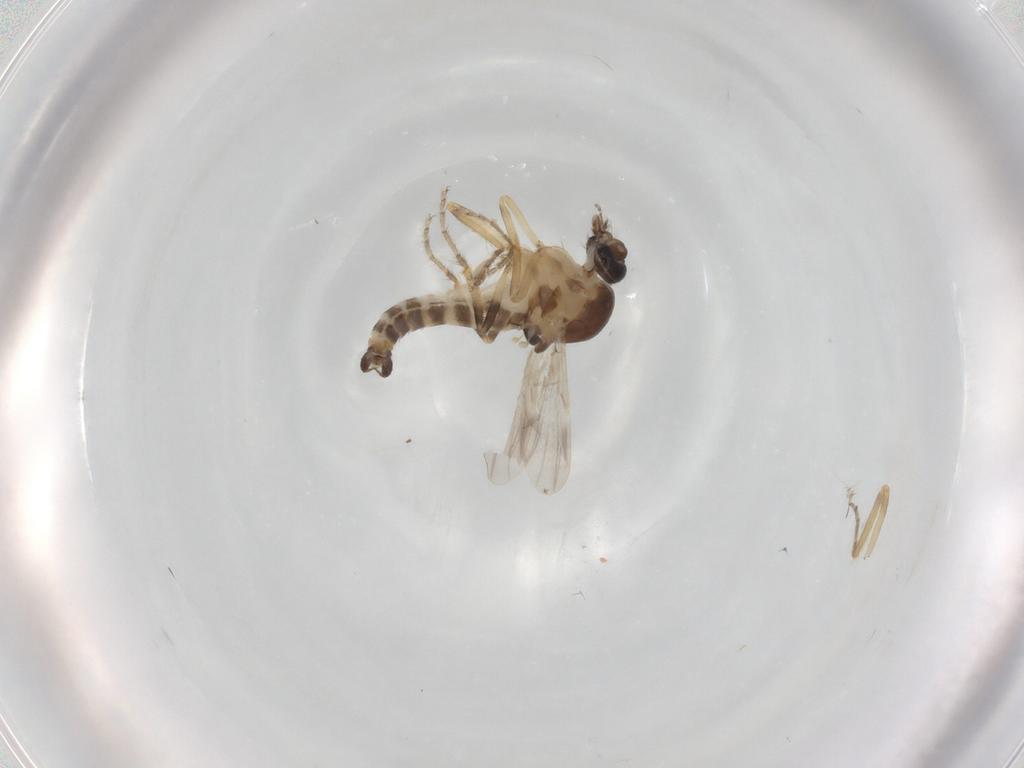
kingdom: Animalia
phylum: Arthropoda
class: Insecta
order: Diptera
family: Ceratopogonidae
